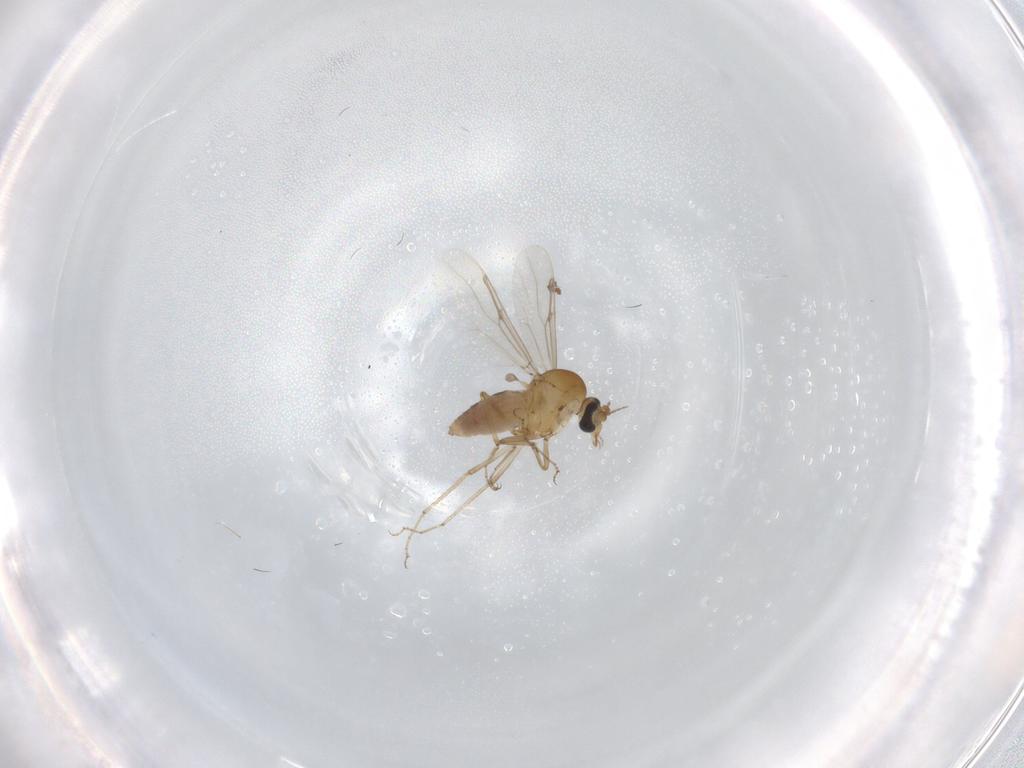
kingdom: Animalia
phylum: Arthropoda
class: Insecta
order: Diptera
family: Ceratopogonidae
